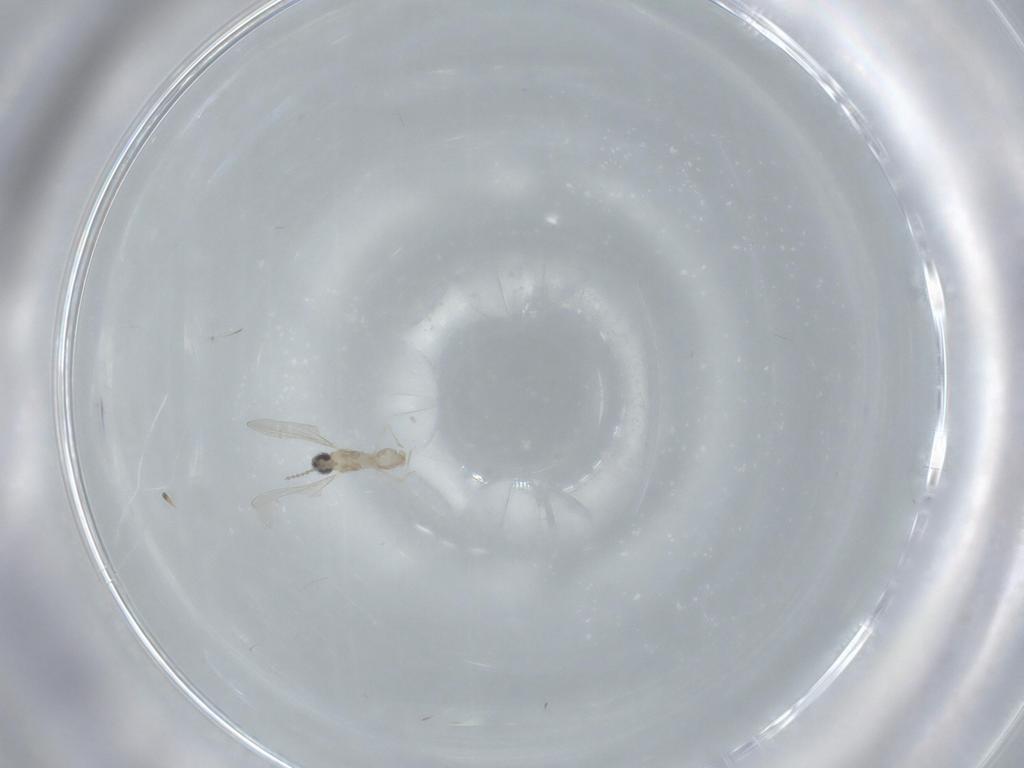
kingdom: Animalia
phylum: Arthropoda
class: Insecta
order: Diptera
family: Cecidomyiidae
